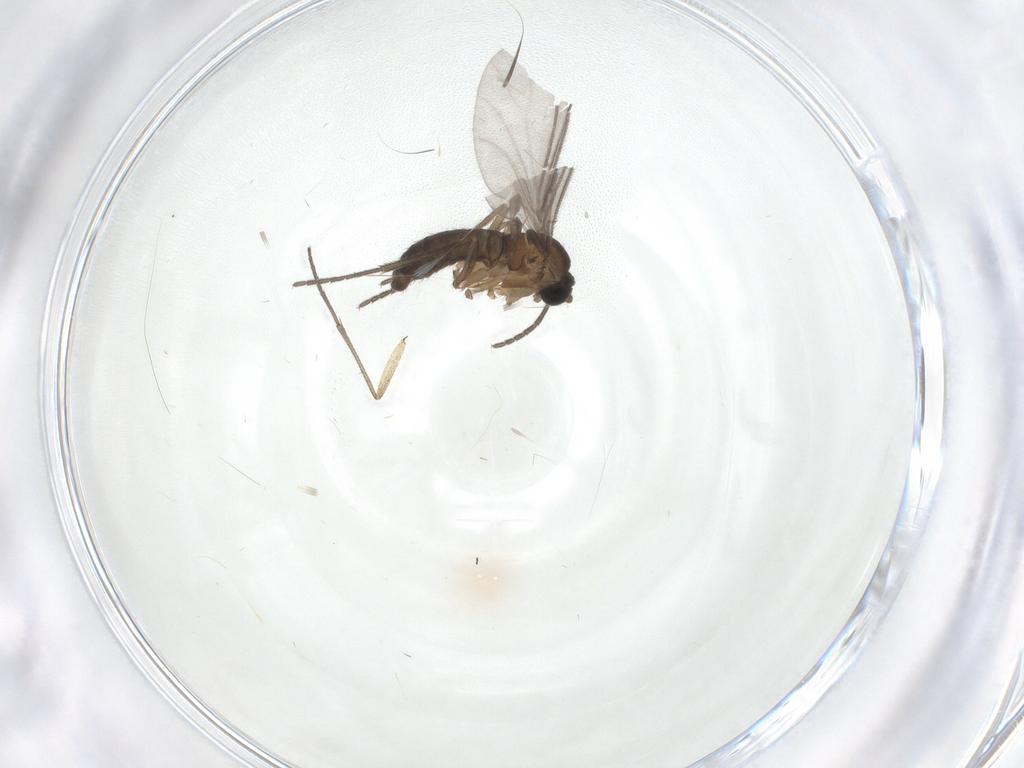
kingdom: Animalia
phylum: Arthropoda
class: Insecta
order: Diptera
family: Sciaridae
